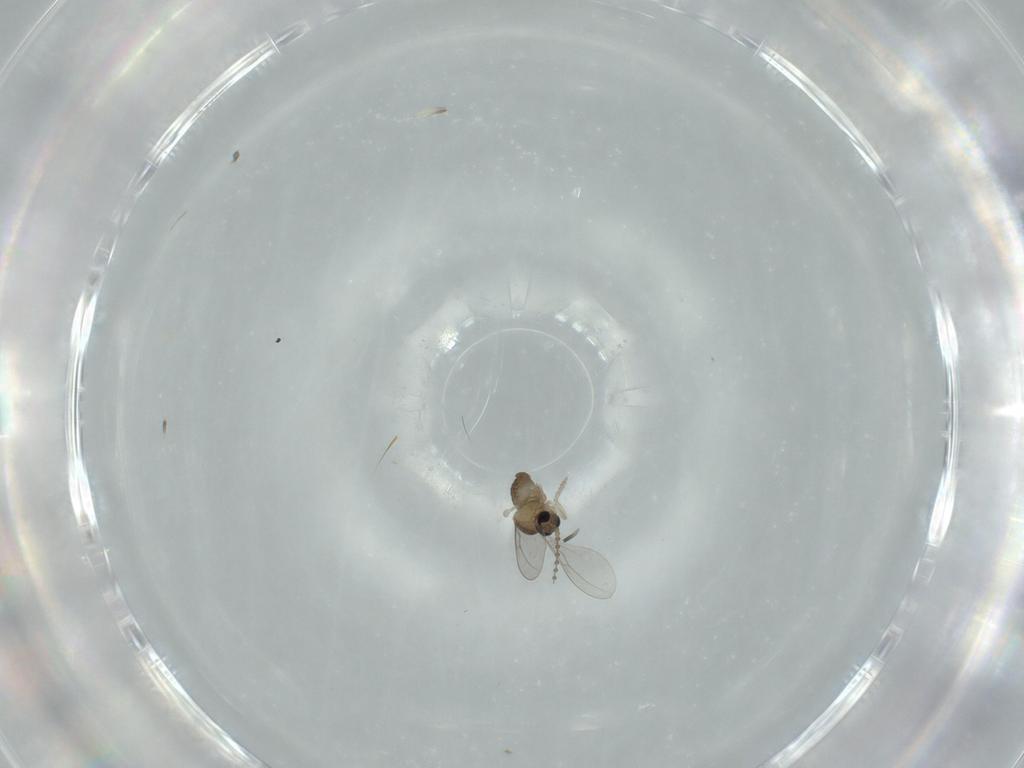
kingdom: Animalia
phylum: Arthropoda
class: Insecta
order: Diptera
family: Cecidomyiidae
